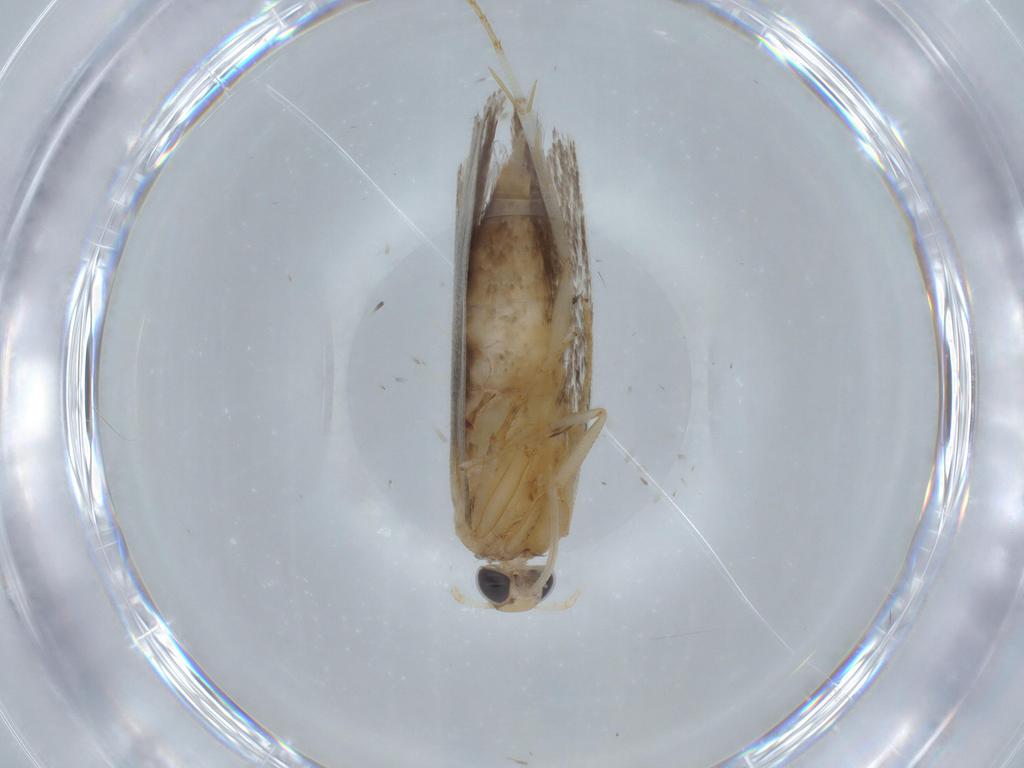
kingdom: Animalia
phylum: Arthropoda
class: Insecta
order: Lepidoptera
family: Gelechiidae
